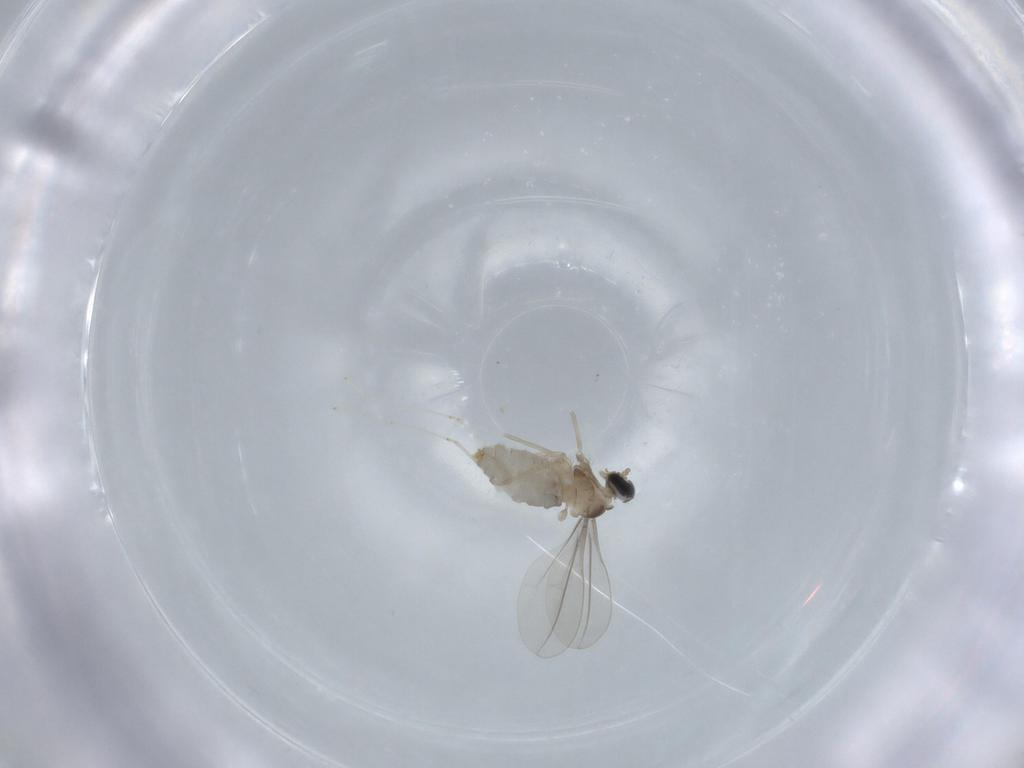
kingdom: Animalia
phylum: Arthropoda
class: Insecta
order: Diptera
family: Cecidomyiidae
